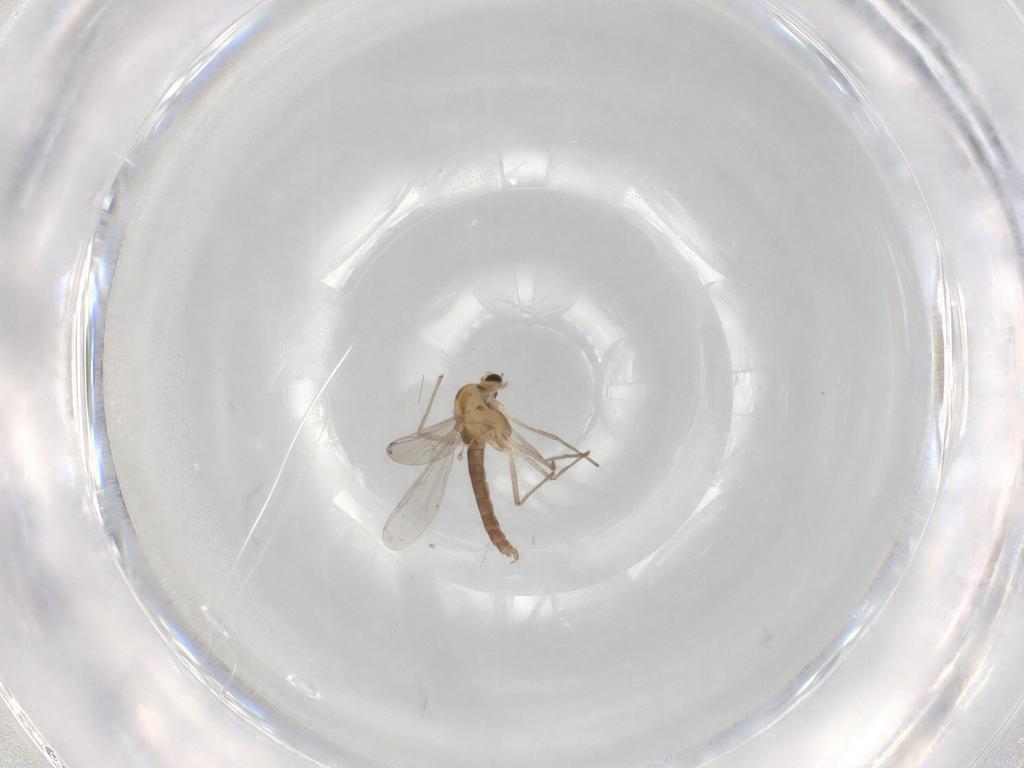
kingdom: Animalia
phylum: Arthropoda
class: Insecta
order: Diptera
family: Chironomidae
